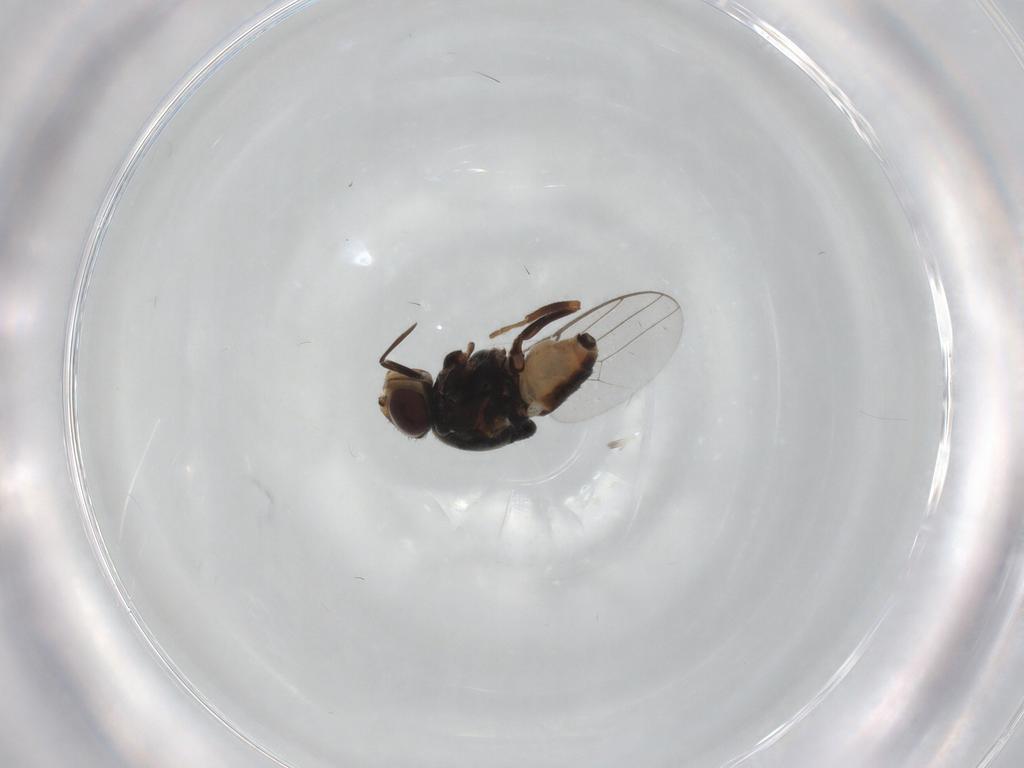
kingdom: Animalia
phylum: Arthropoda
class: Insecta
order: Diptera
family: Chloropidae
